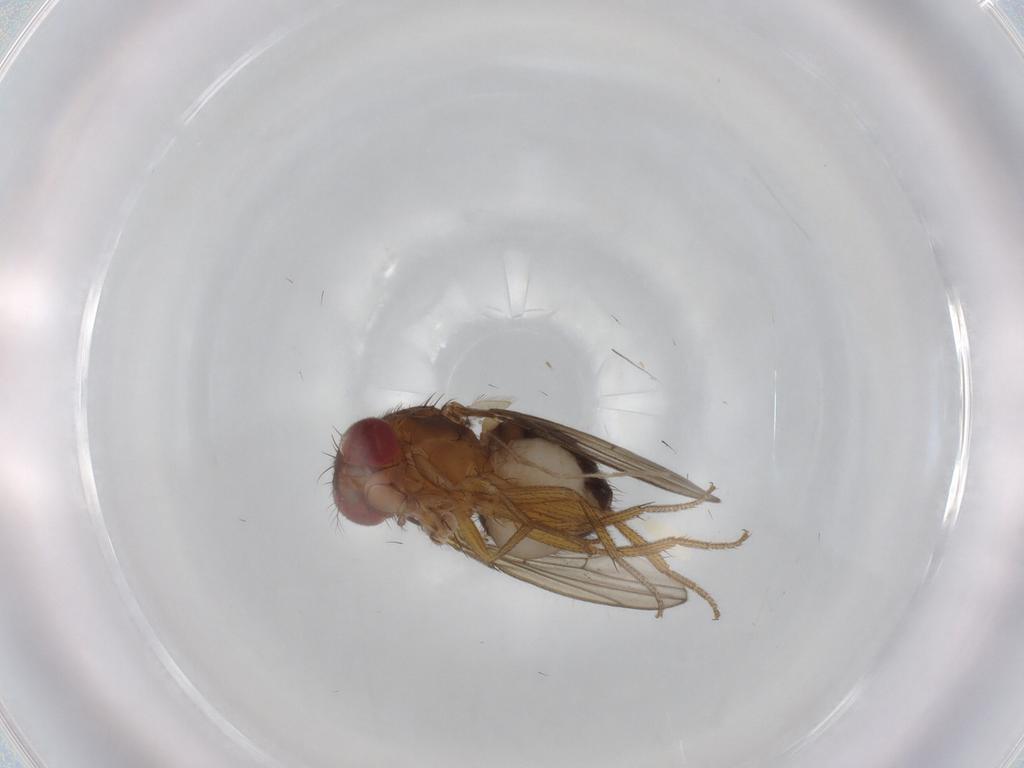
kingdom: Animalia
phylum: Arthropoda
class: Insecta
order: Diptera
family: Drosophilidae
